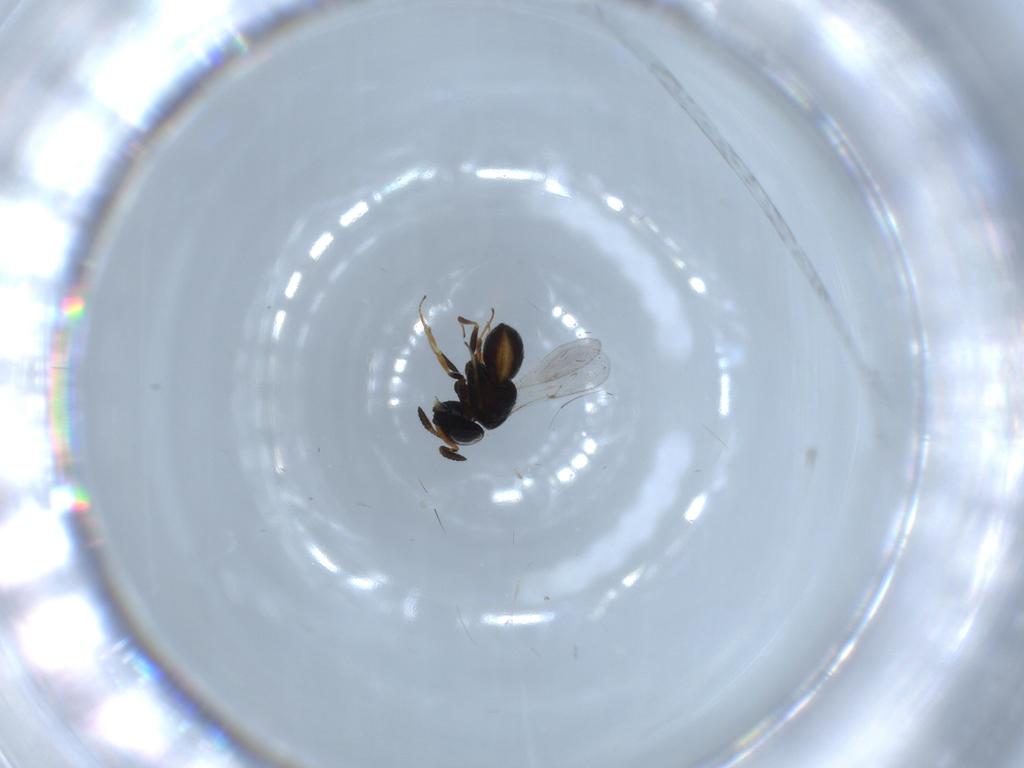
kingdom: Animalia
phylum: Arthropoda
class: Insecta
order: Hymenoptera
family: Scelionidae
